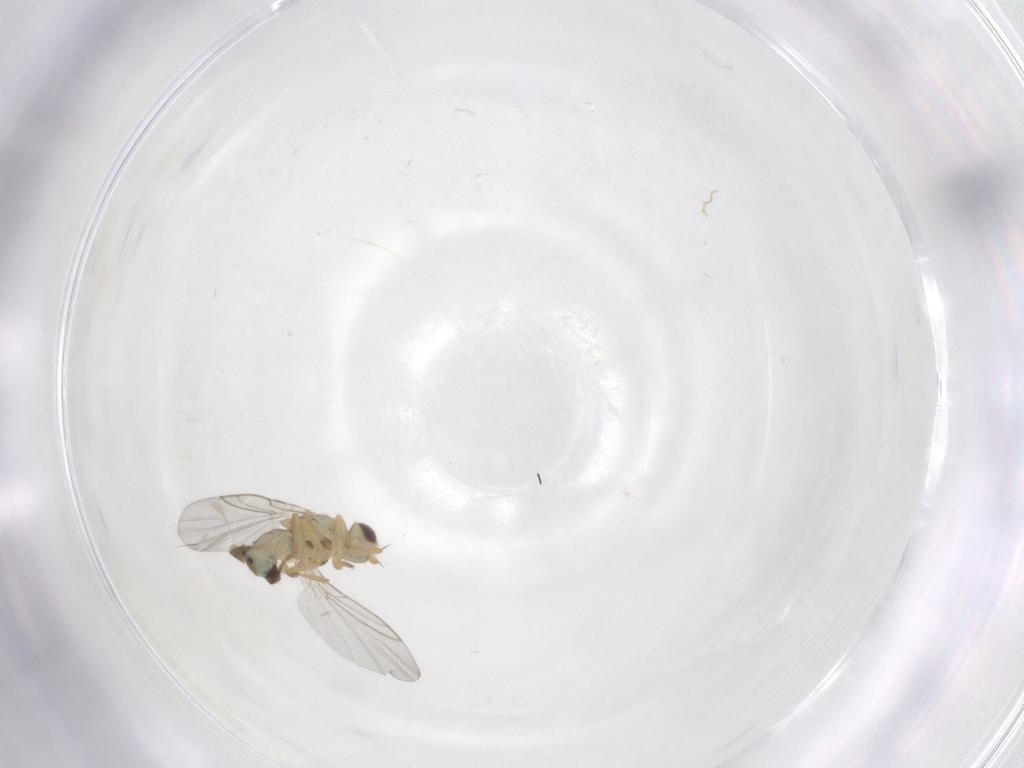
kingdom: Animalia
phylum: Arthropoda
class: Insecta
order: Diptera
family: Agromyzidae
